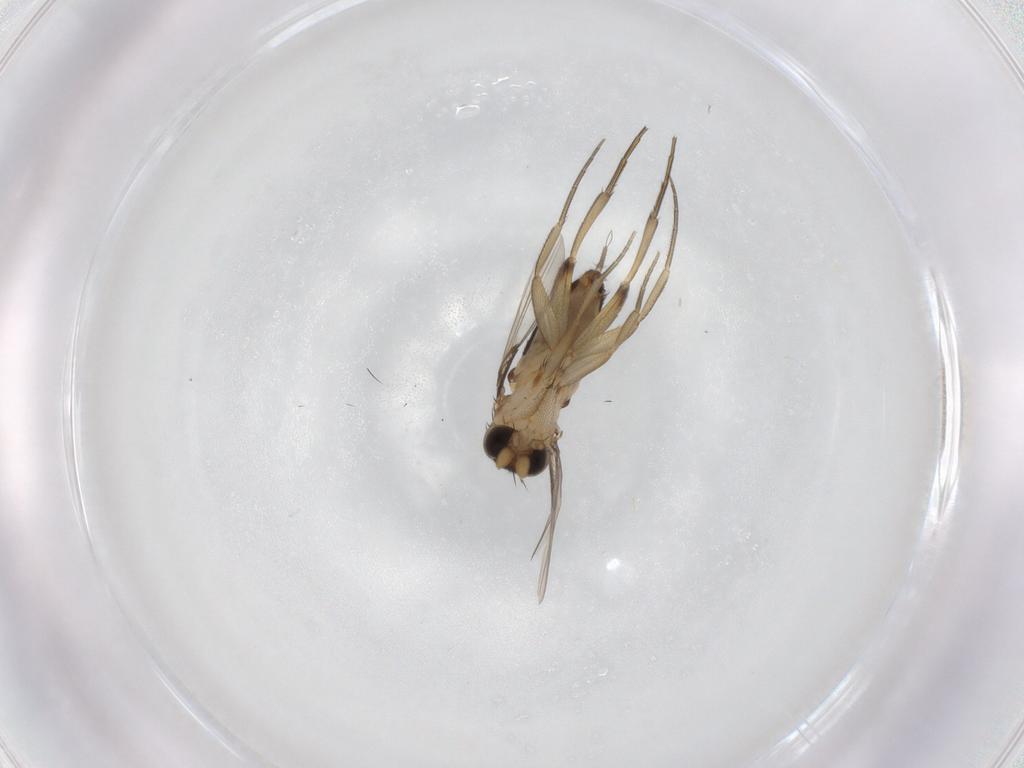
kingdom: Animalia
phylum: Arthropoda
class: Insecta
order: Diptera
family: Phoridae
